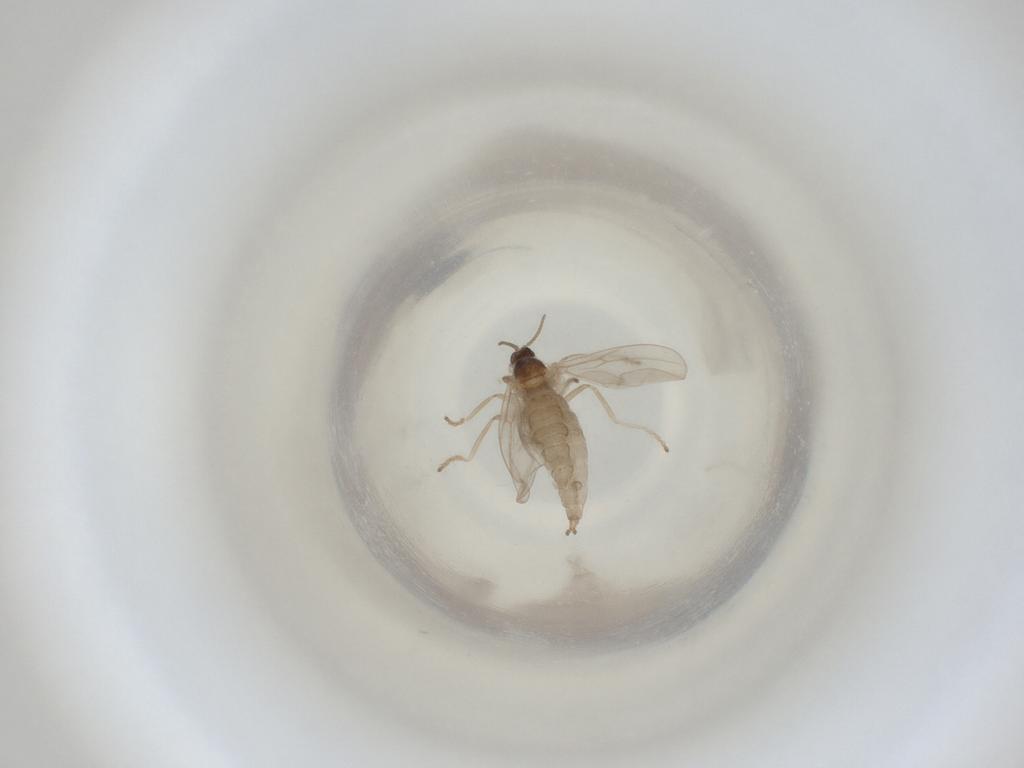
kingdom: Animalia
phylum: Arthropoda
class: Insecta
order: Diptera
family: Cecidomyiidae
